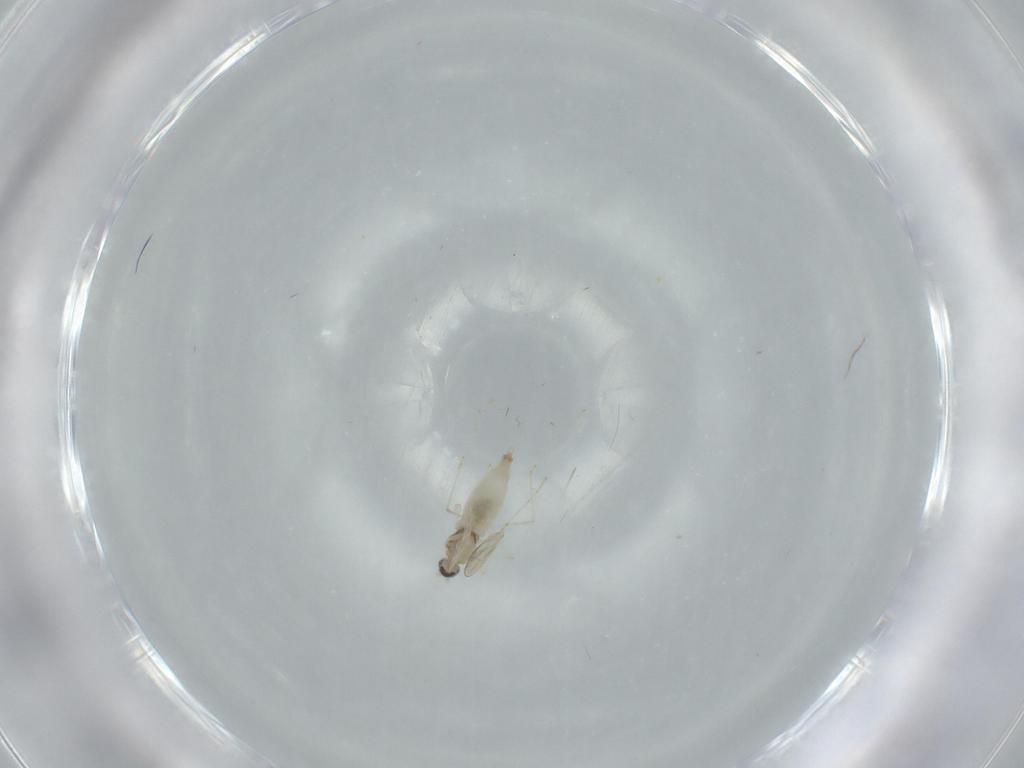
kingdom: Animalia
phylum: Arthropoda
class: Insecta
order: Diptera
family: Cecidomyiidae
